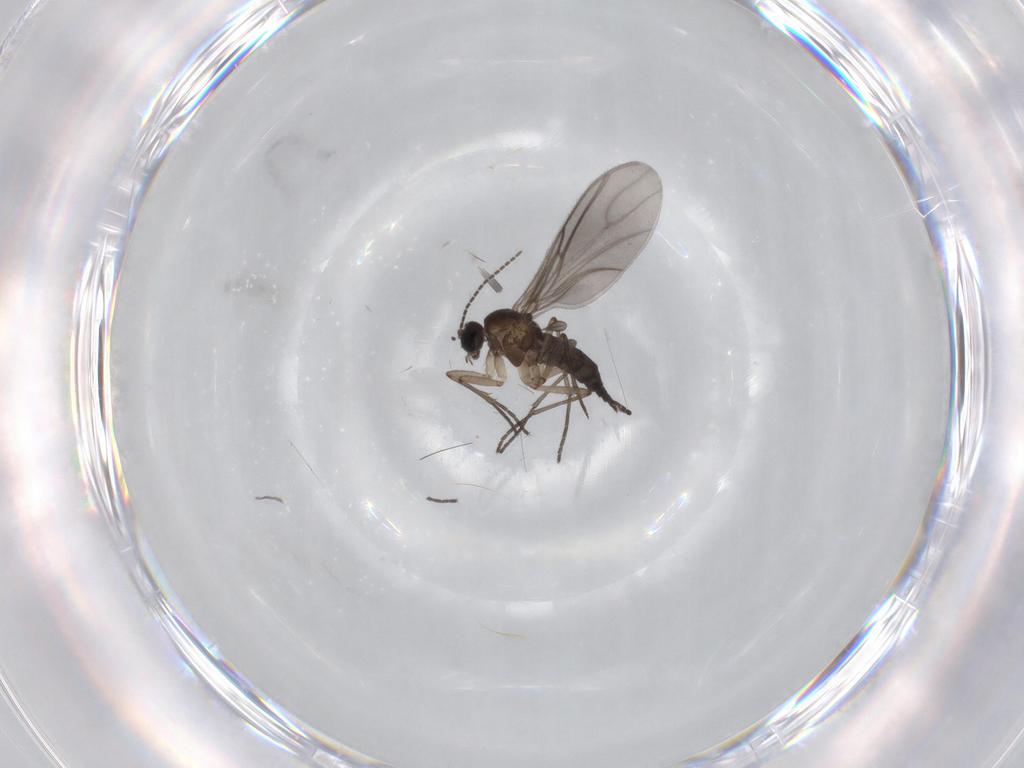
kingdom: Animalia
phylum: Arthropoda
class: Insecta
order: Diptera
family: Sciaridae
